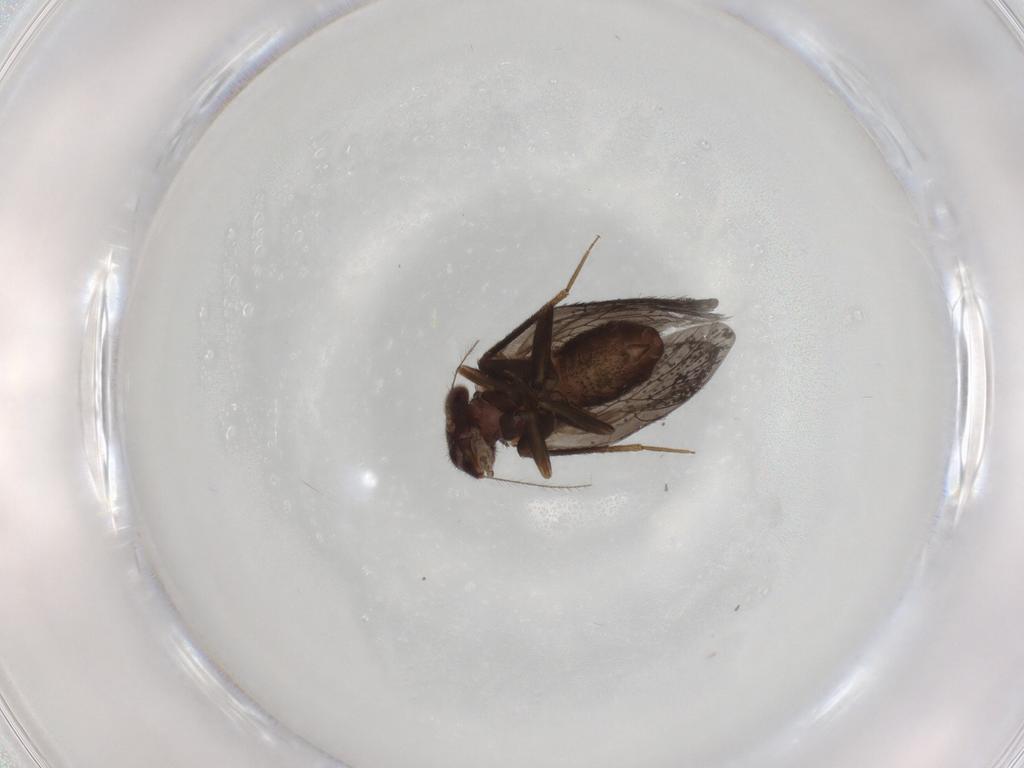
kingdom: Animalia
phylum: Arthropoda
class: Insecta
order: Psocodea
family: Lepidopsocidae
